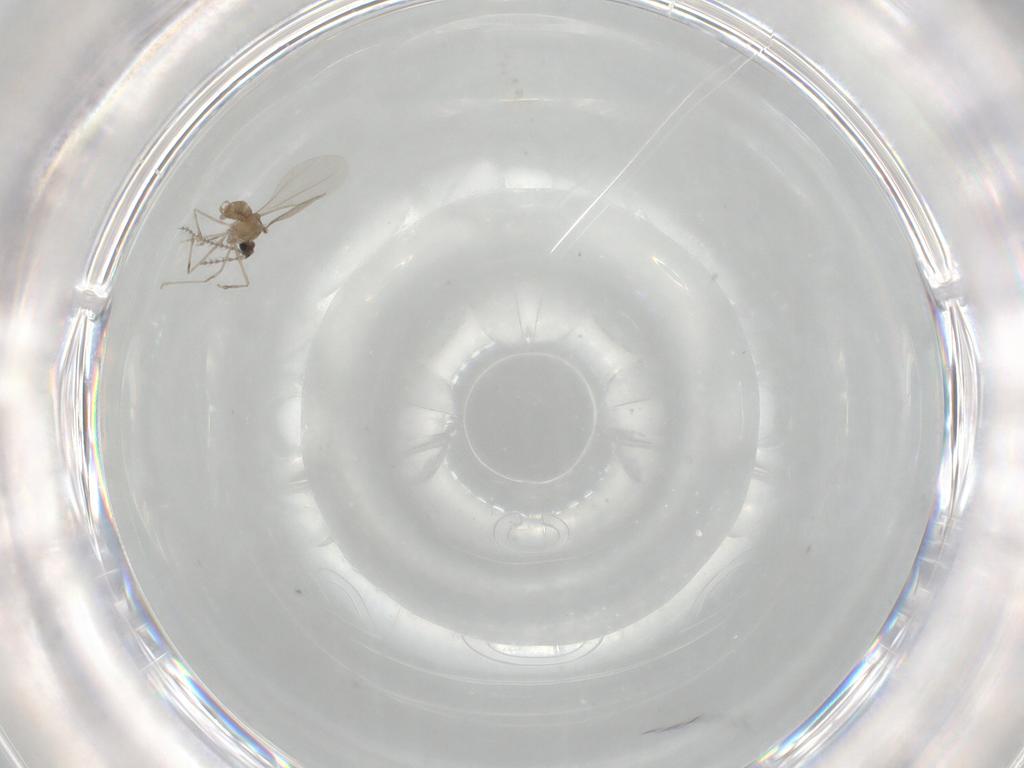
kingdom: Animalia
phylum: Arthropoda
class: Insecta
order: Diptera
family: Cecidomyiidae
